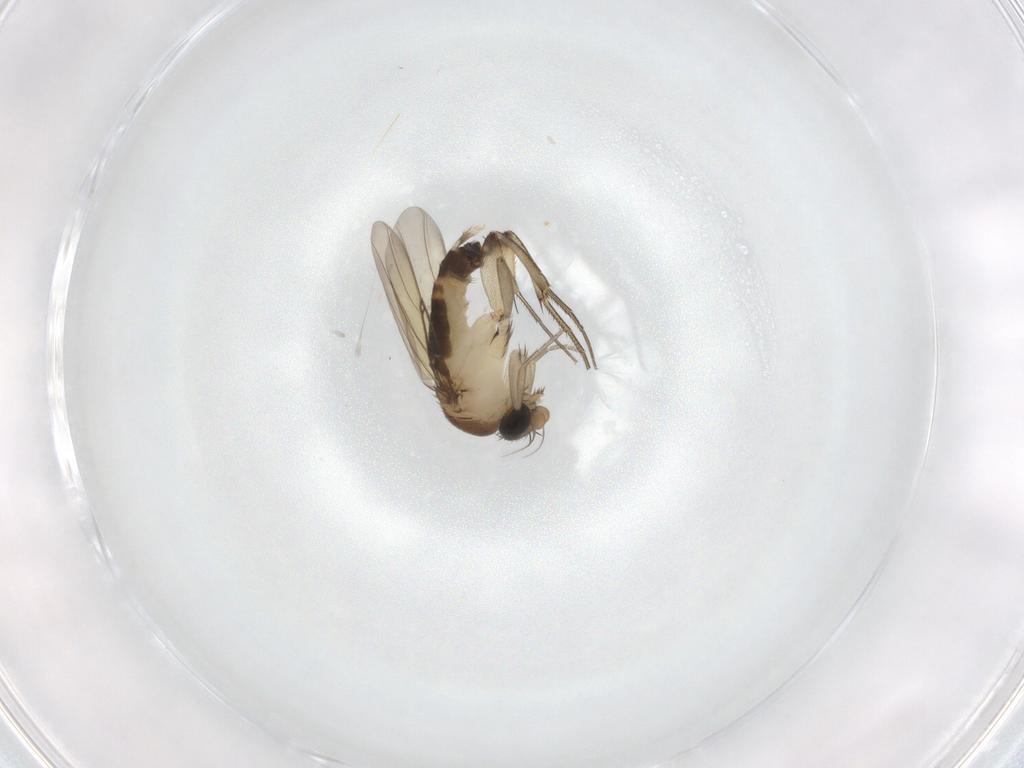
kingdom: Animalia
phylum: Arthropoda
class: Insecta
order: Diptera
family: Phoridae
